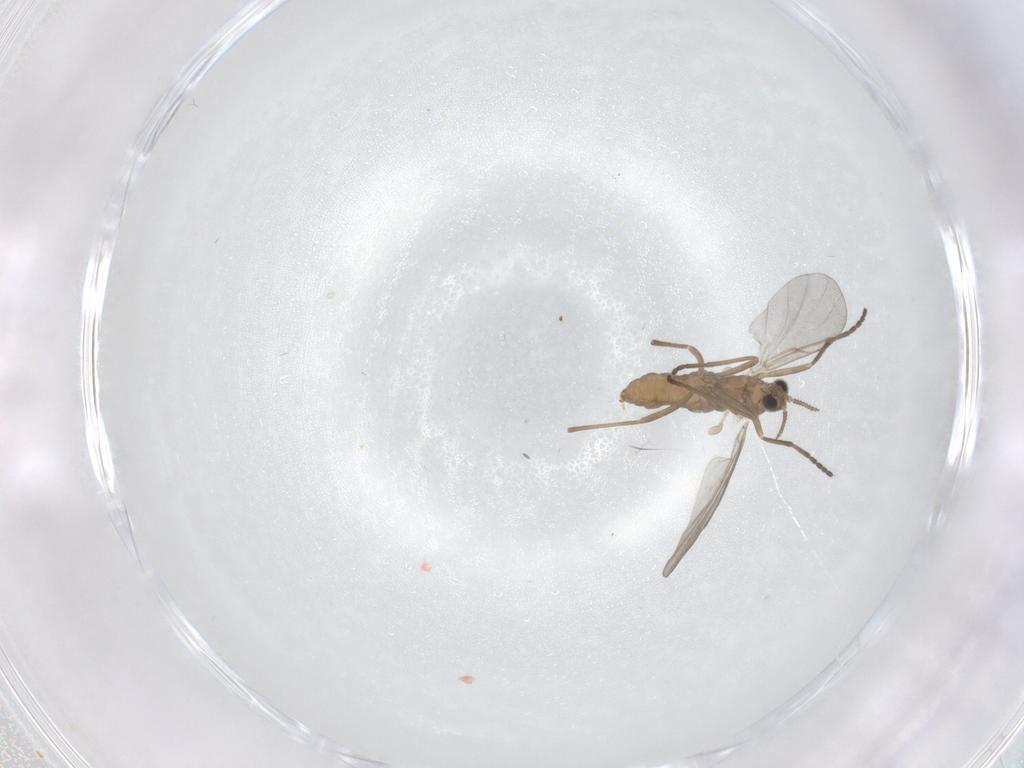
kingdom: Animalia
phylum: Arthropoda
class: Insecta
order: Diptera
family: Cecidomyiidae
